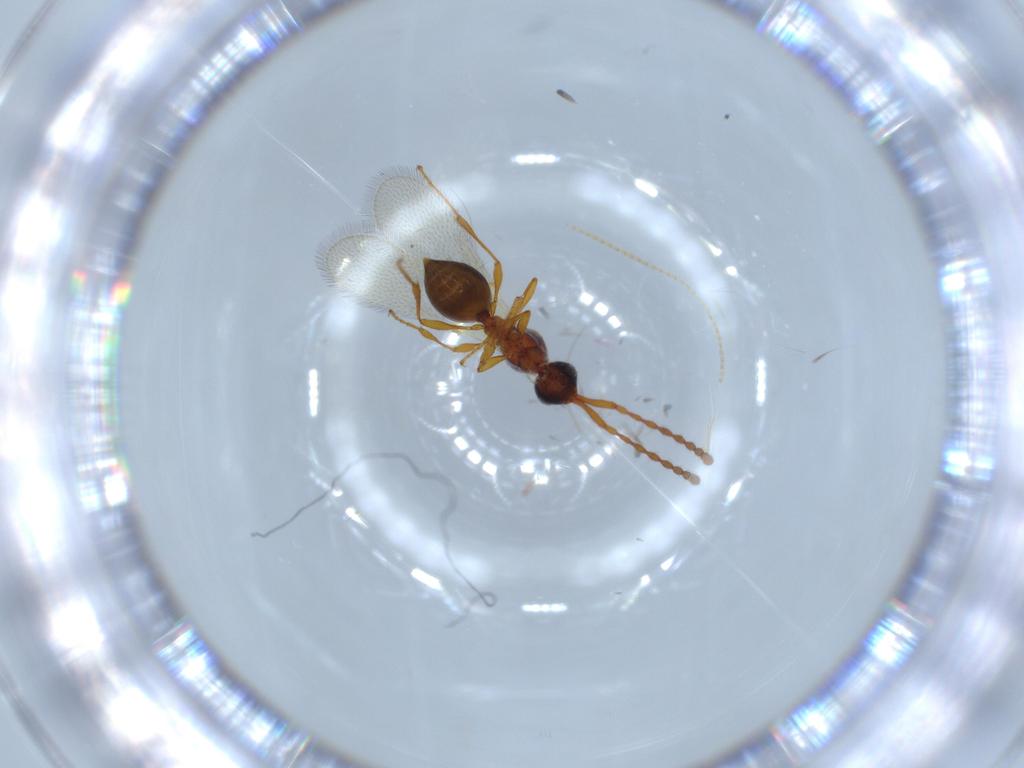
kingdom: Animalia
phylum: Arthropoda
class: Insecta
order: Hymenoptera
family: Diapriidae
